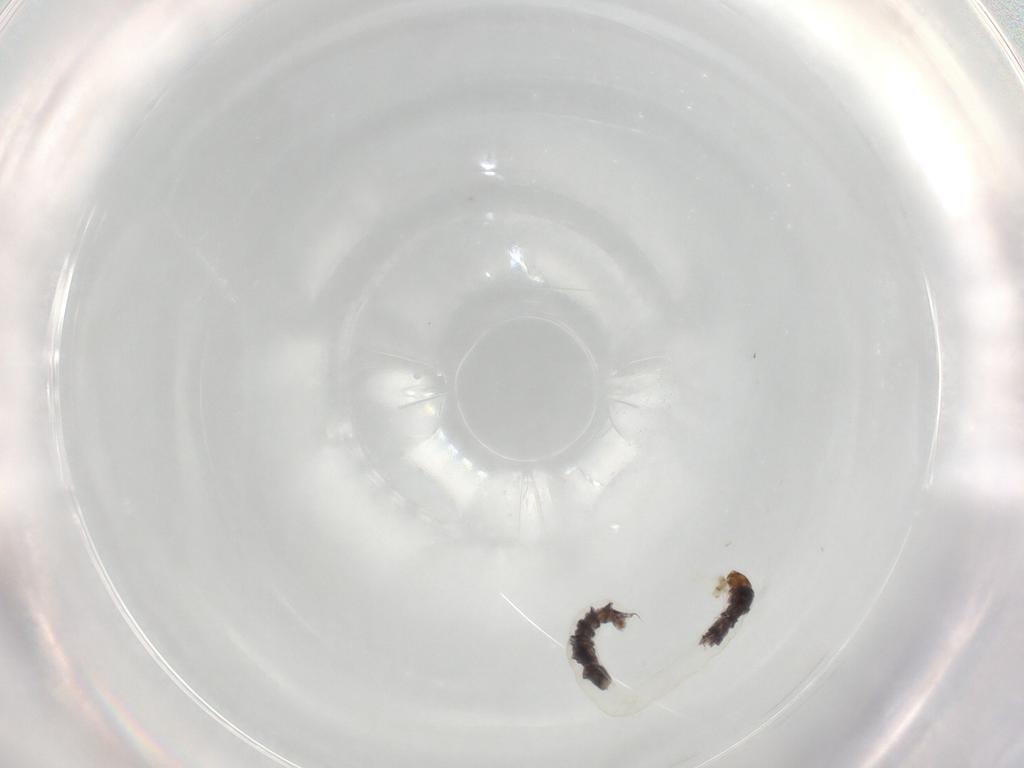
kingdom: Animalia
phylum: Arthropoda
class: Insecta
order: Diptera
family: Chironomidae
